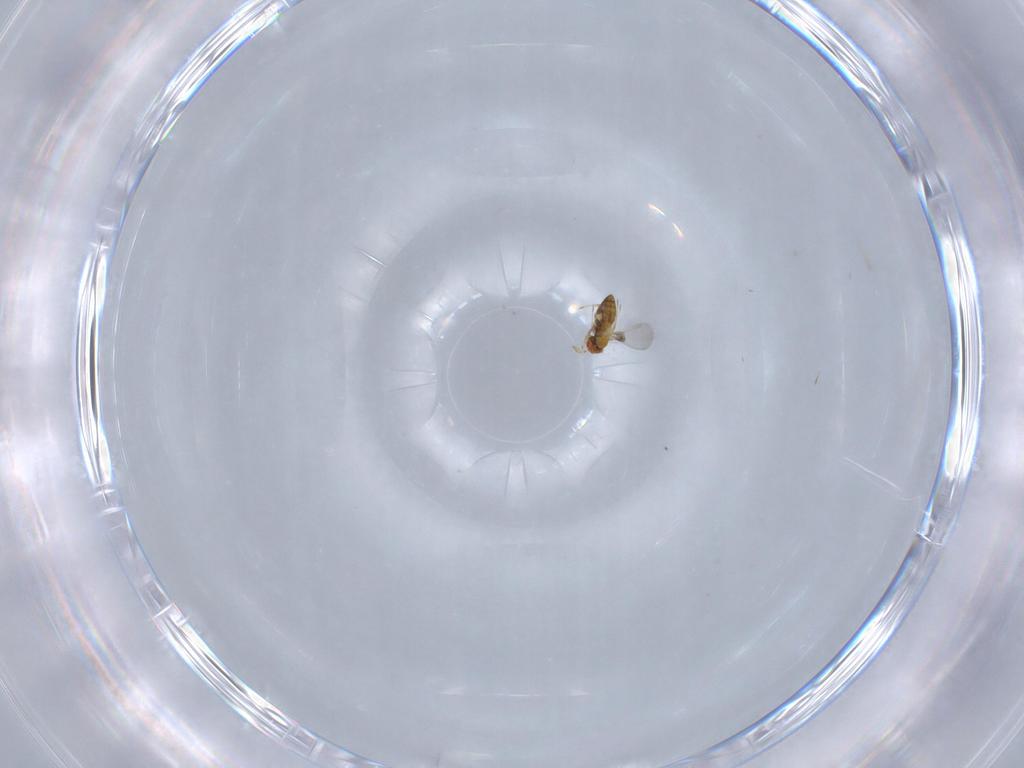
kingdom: Animalia
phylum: Arthropoda
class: Insecta
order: Hymenoptera
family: Trichogrammatidae
